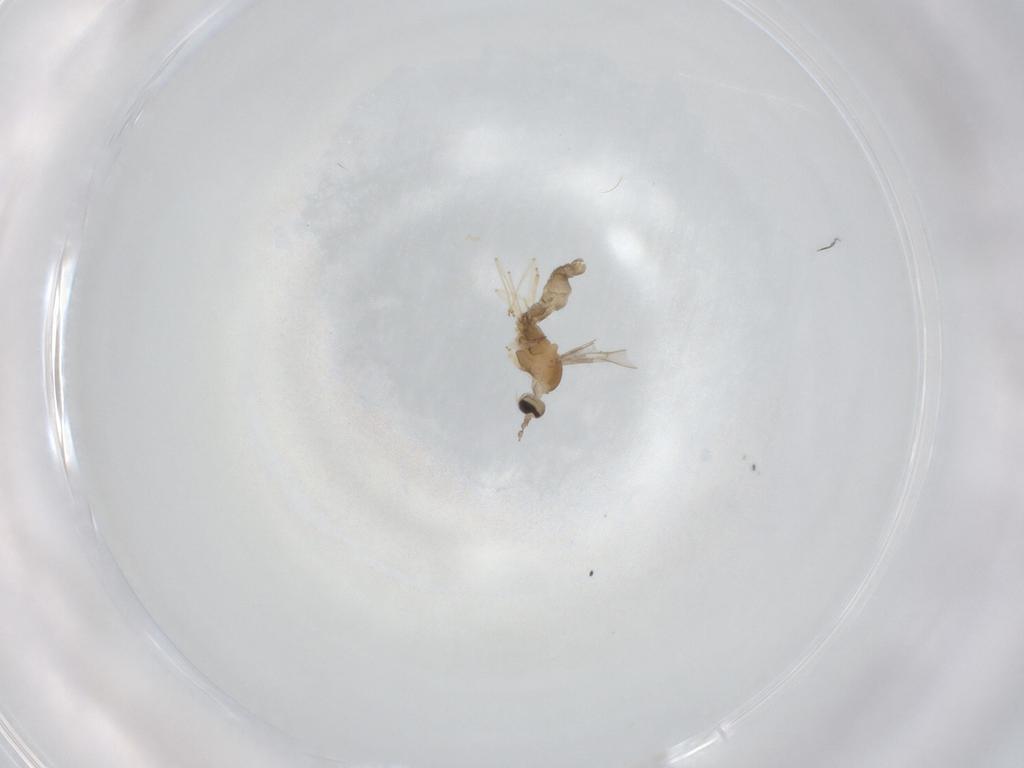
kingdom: Animalia
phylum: Arthropoda
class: Insecta
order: Diptera
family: Cecidomyiidae
